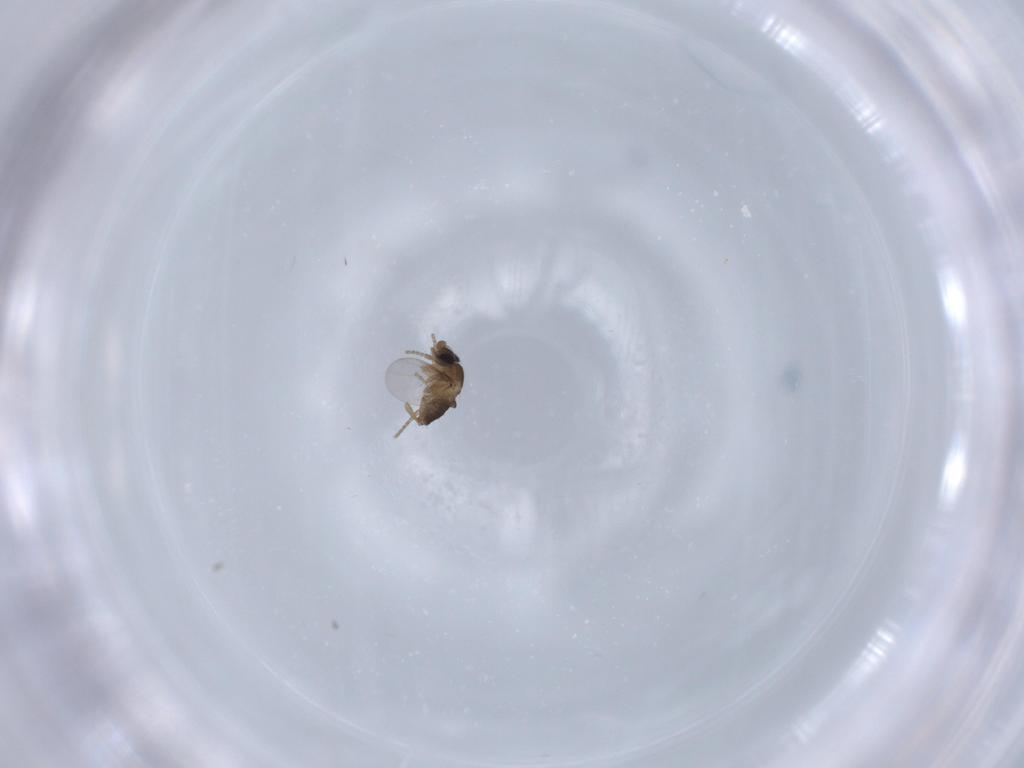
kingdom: Animalia
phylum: Arthropoda
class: Insecta
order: Diptera
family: Phoridae
